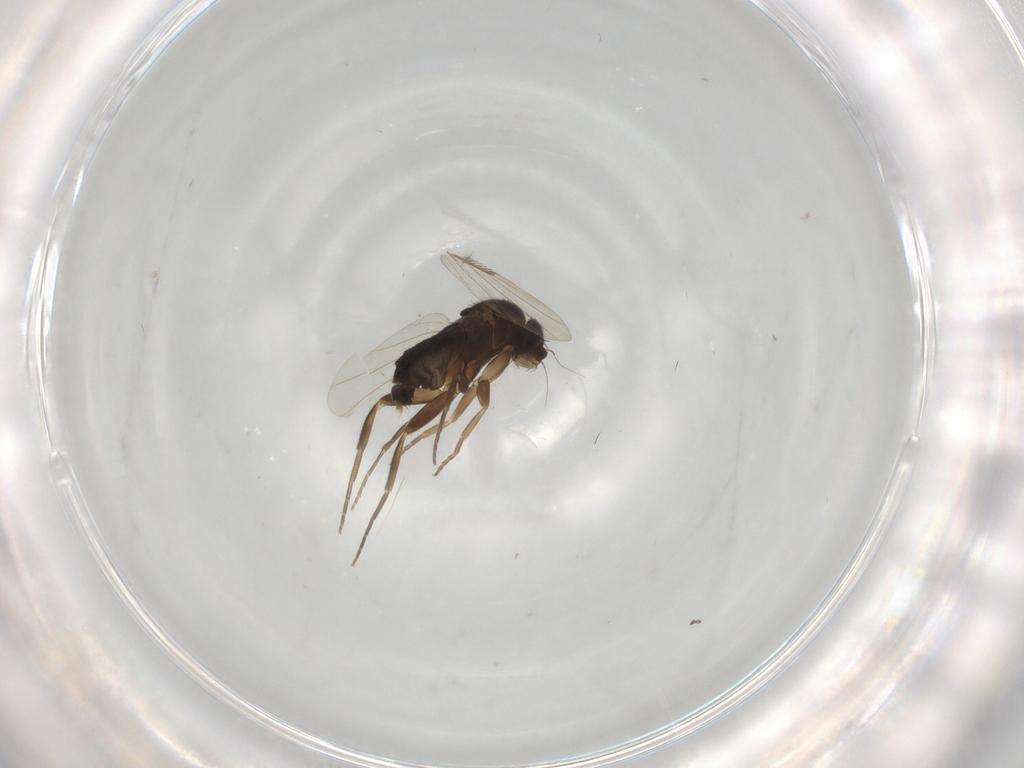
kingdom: Animalia
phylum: Arthropoda
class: Insecta
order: Diptera
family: Phoridae
